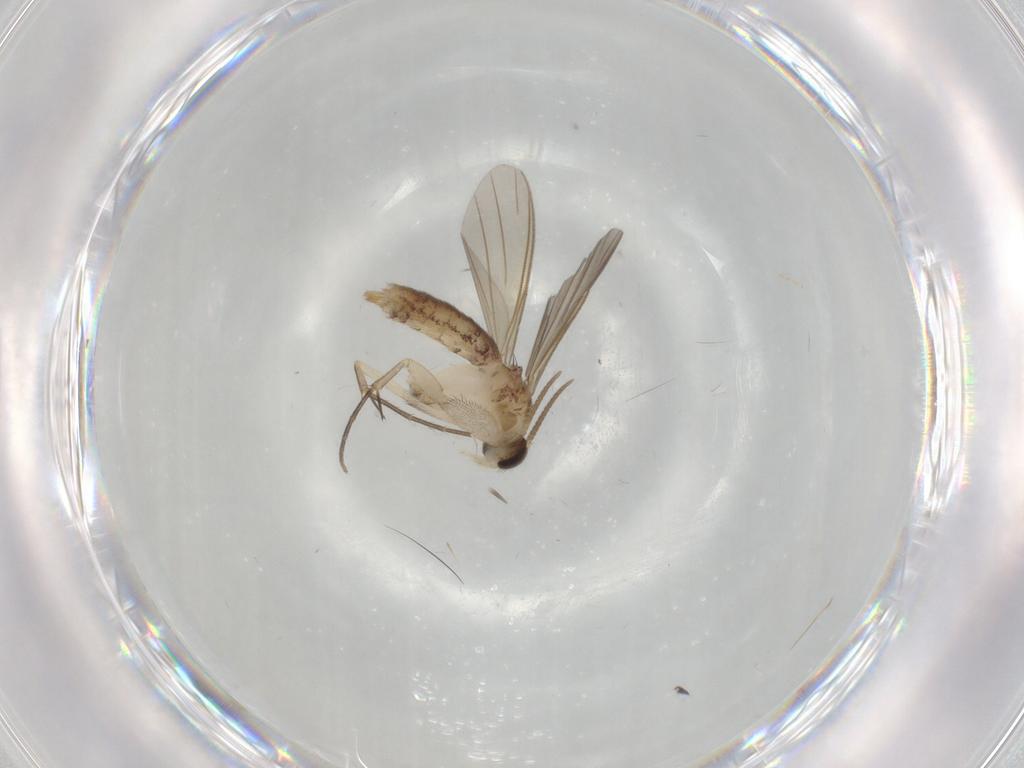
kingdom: Animalia
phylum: Arthropoda
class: Insecta
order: Diptera
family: Mycetophilidae
